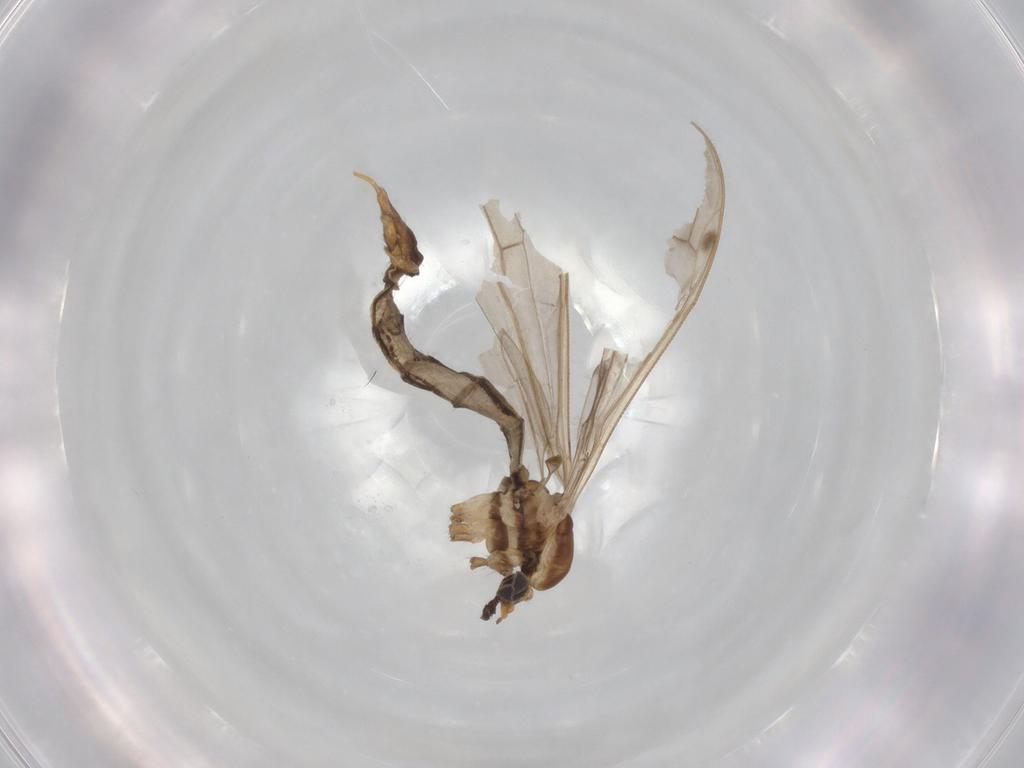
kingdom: Animalia
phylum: Arthropoda
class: Insecta
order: Diptera
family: Limoniidae
